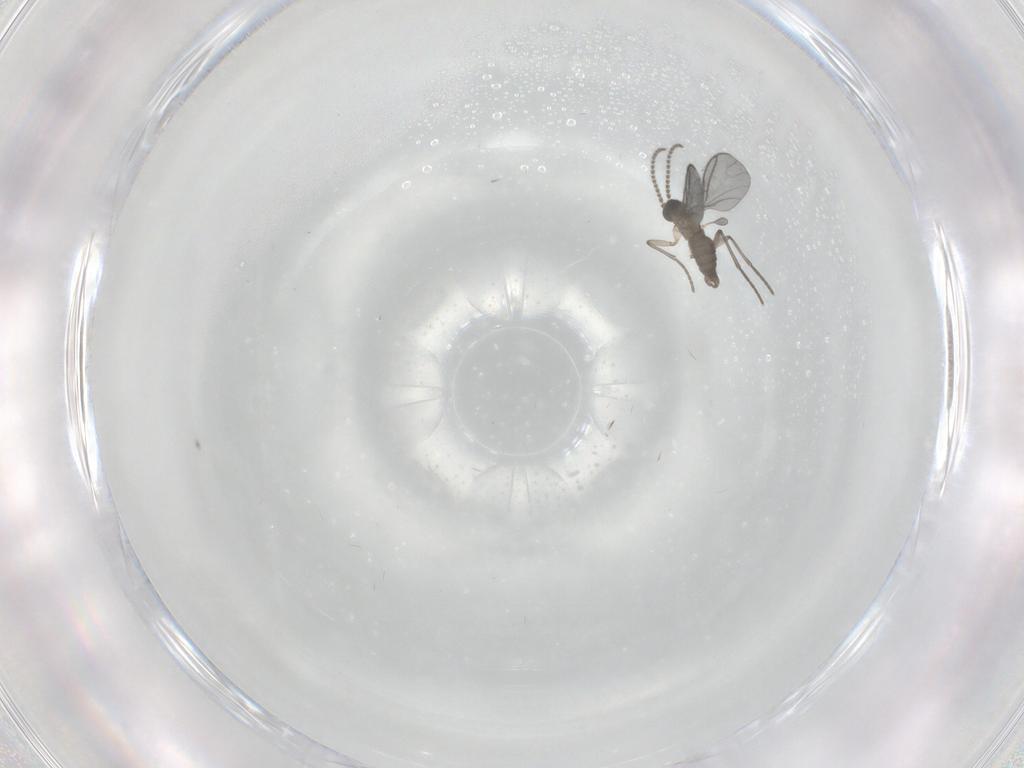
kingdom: Animalia
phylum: Arthropoda
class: Insecta
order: Diptera
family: Sciaridae
